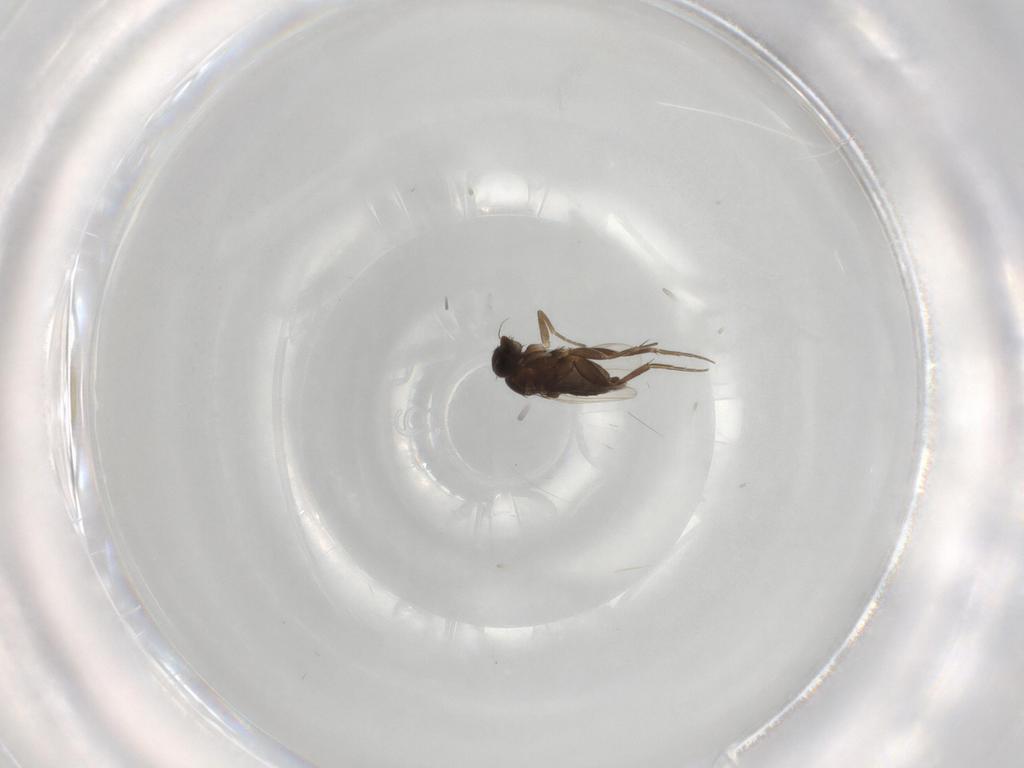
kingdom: Animalia
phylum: Arthropoda
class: Insecta
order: Diptera
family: Phoridae
